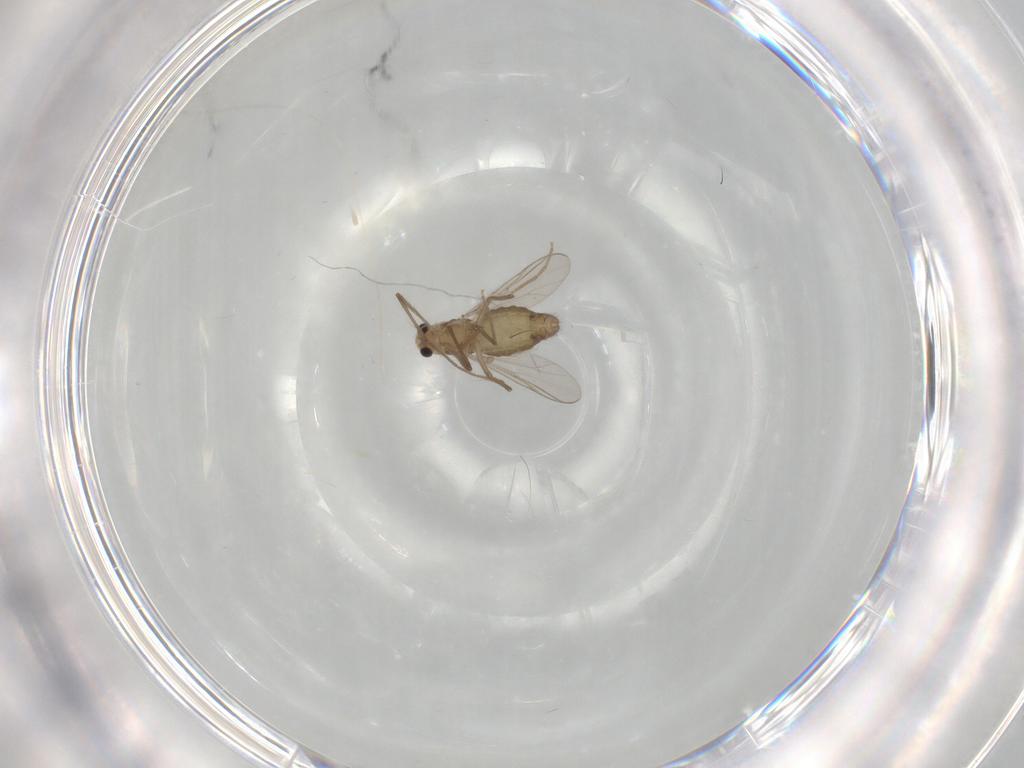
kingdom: Animalia
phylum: Arthropoda
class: Insecta
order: Diptera
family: Chironomidae
